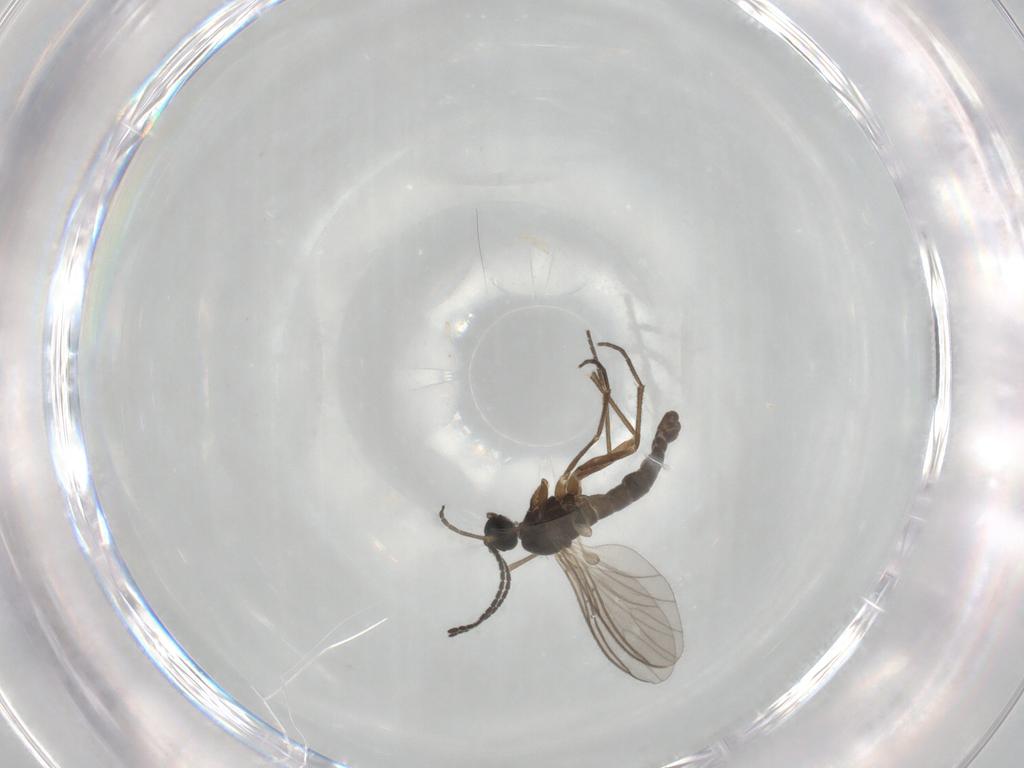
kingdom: Animalia
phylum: Arthropoda
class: Insecta
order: Diptera
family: Sciaridae
